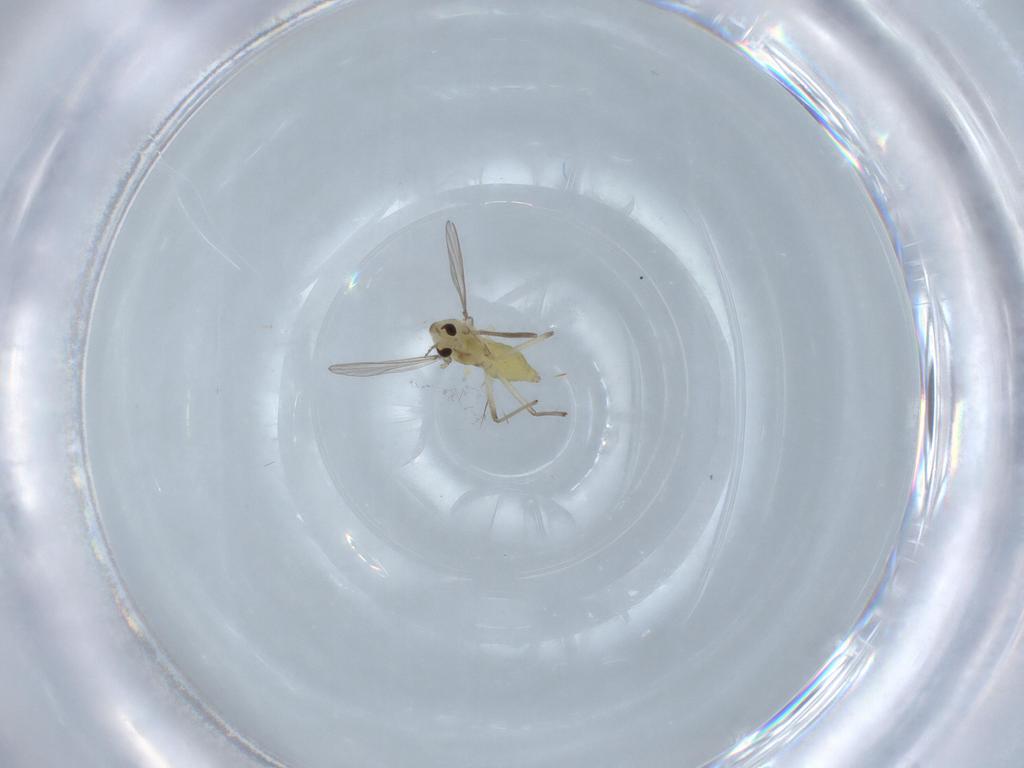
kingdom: Animalia
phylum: Arthropoda
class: Insecta
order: Diptera
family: Chironomidae
